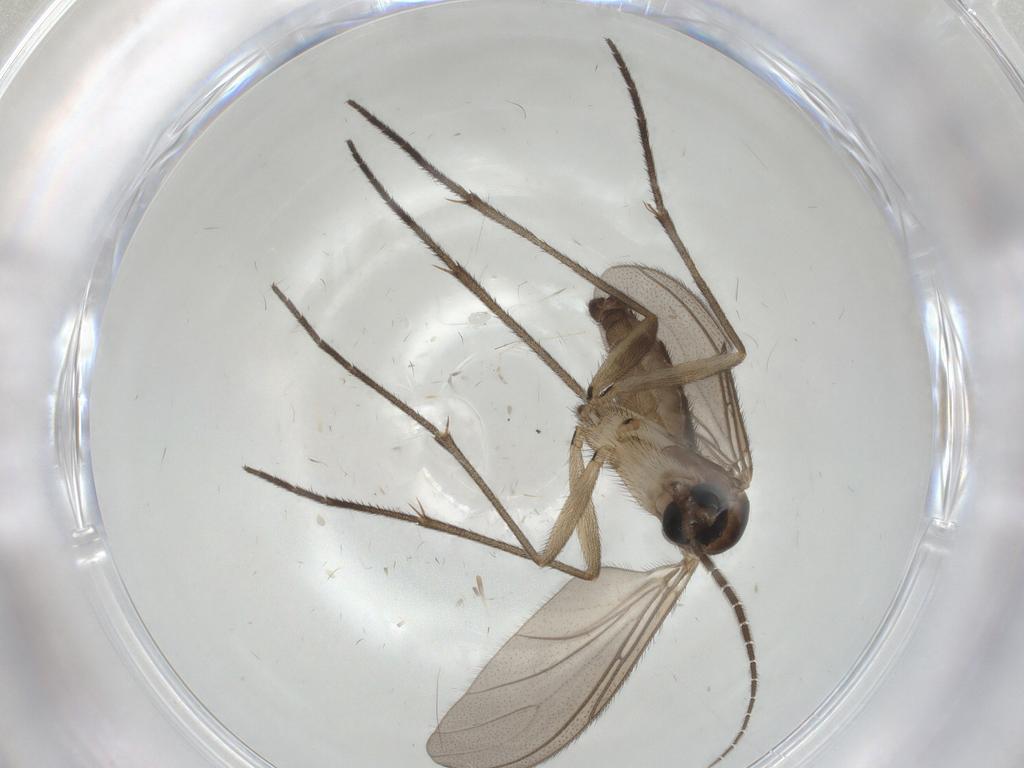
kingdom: Animalia
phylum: Arthropoda
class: Insecta
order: Diptera
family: Sciaridae
